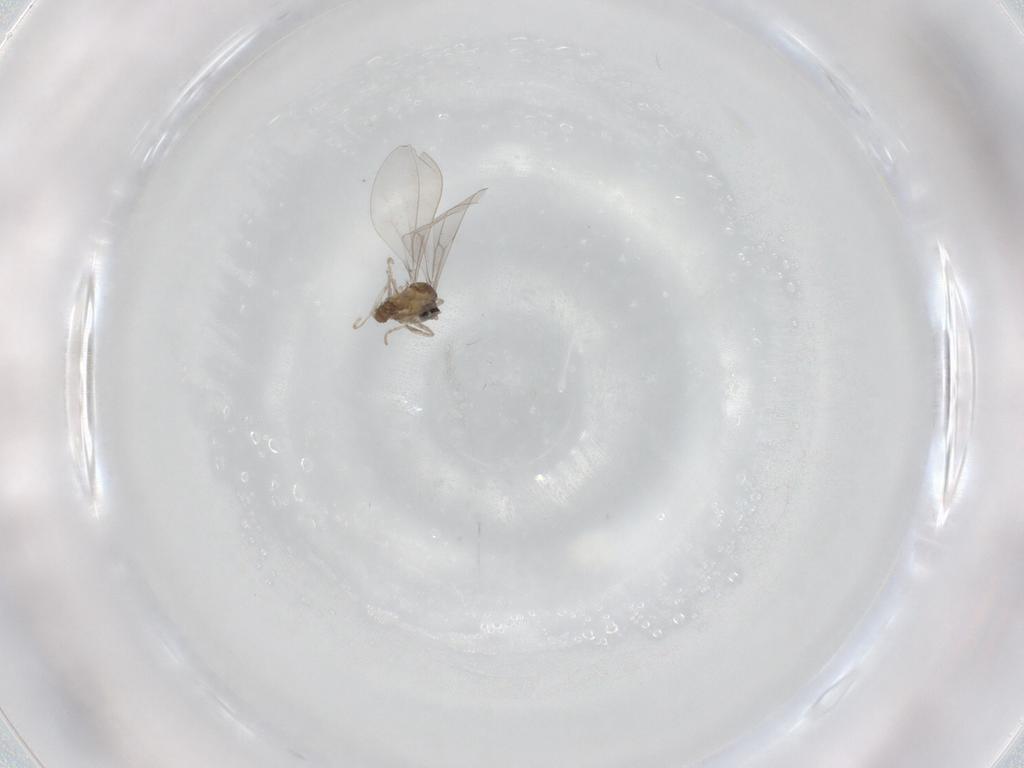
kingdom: Animalia
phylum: Arthropoda
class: Insecta
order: Diptera
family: Cecidomyiidae
